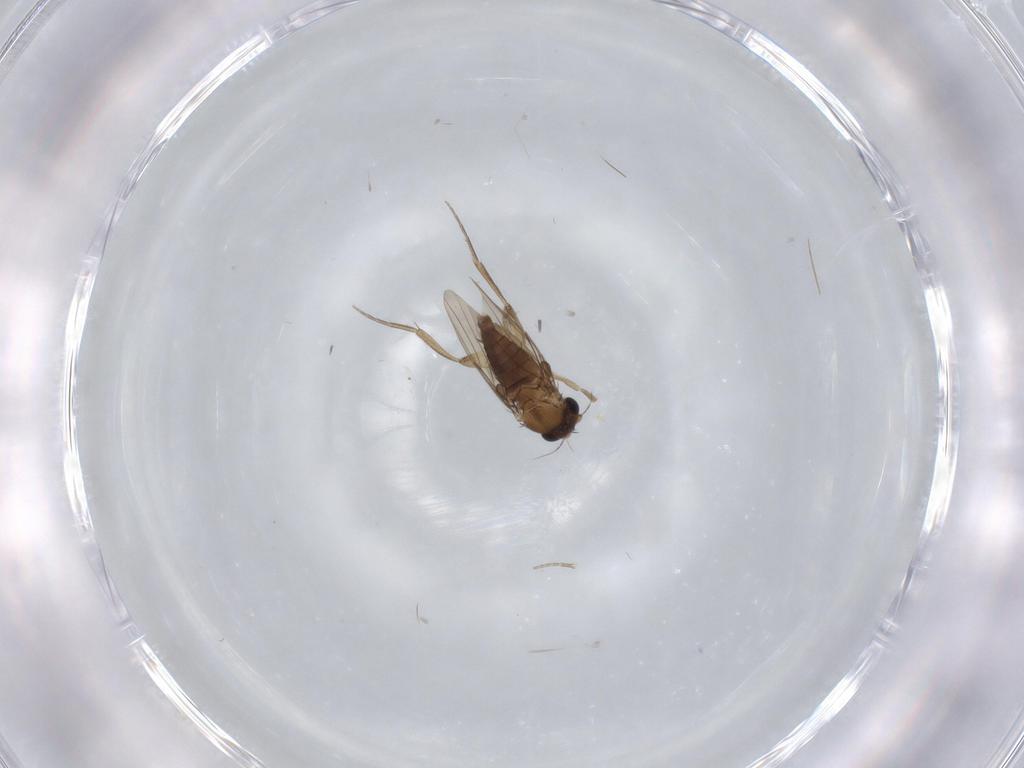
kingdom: Animalia
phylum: Arthropoda
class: Insecta
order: Diptera
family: Phoridae
